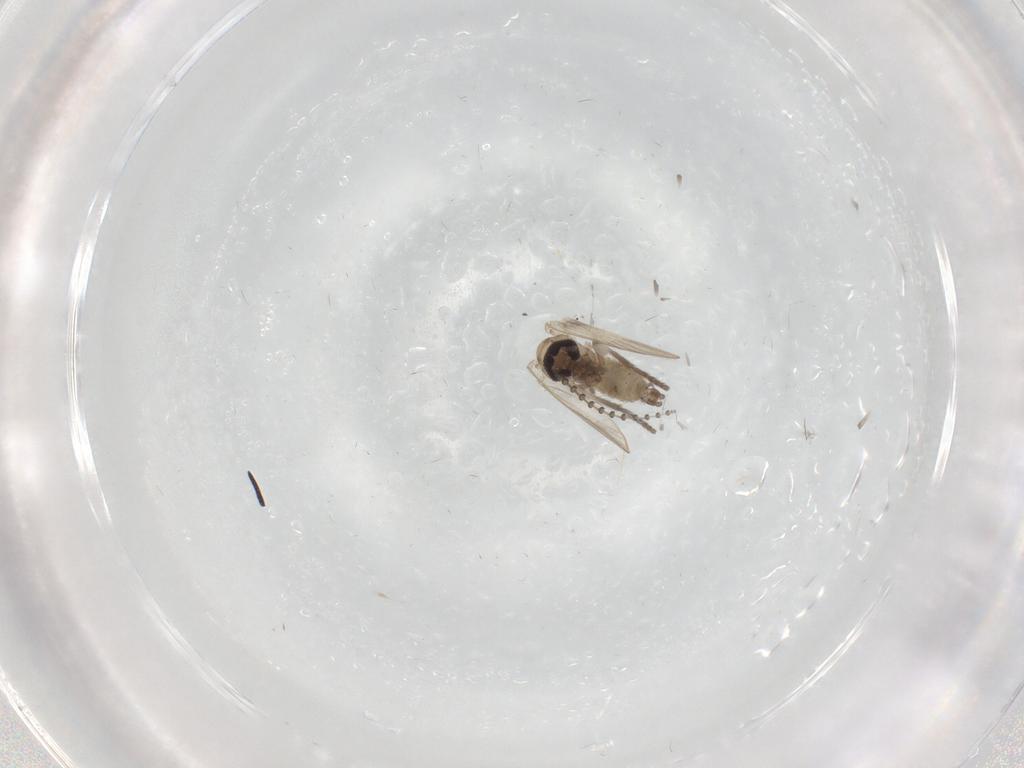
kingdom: Animalia
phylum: Arthropoda
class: Insecta
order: Diptera
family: Psychodidae
